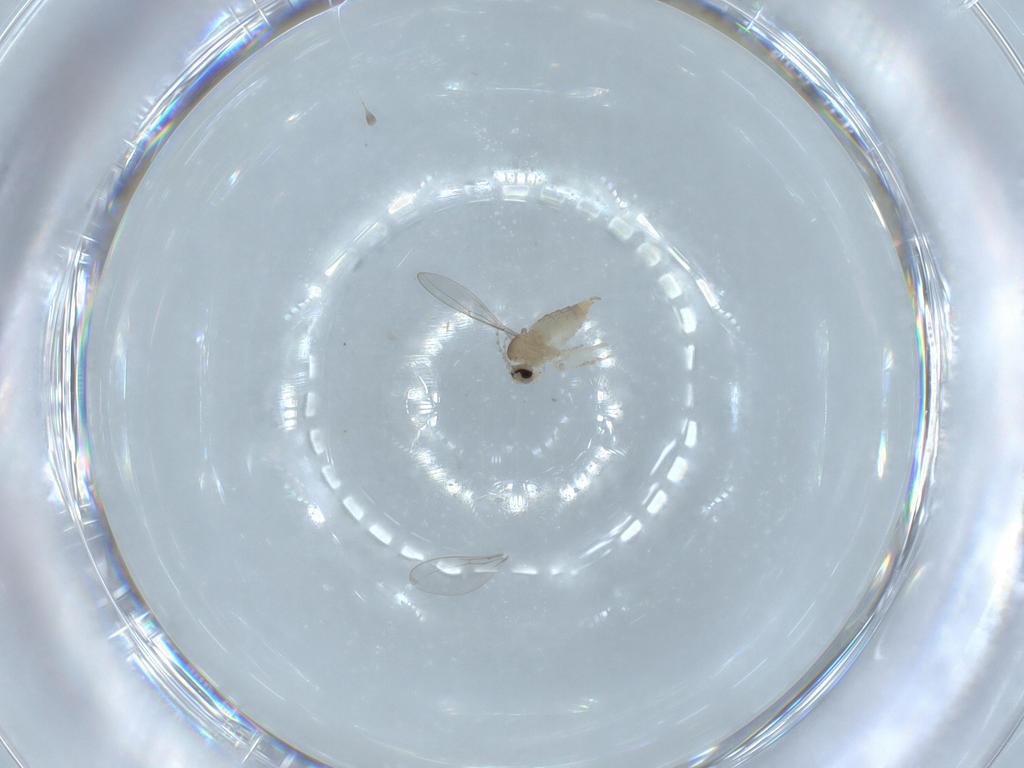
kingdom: Animalia
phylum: Arthropoda
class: Insecta
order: Diptera
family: Cecidomyiidae
